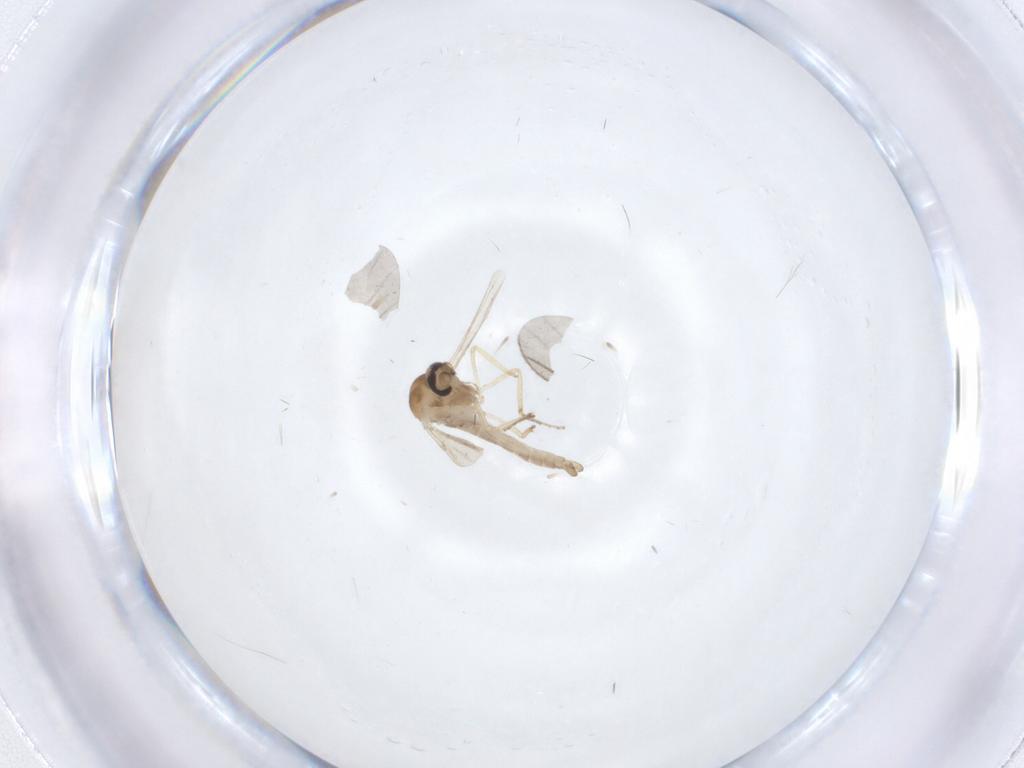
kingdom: Animalia
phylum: Arthropoda
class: Insecta
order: Diptera
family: Ceratopogonidae
